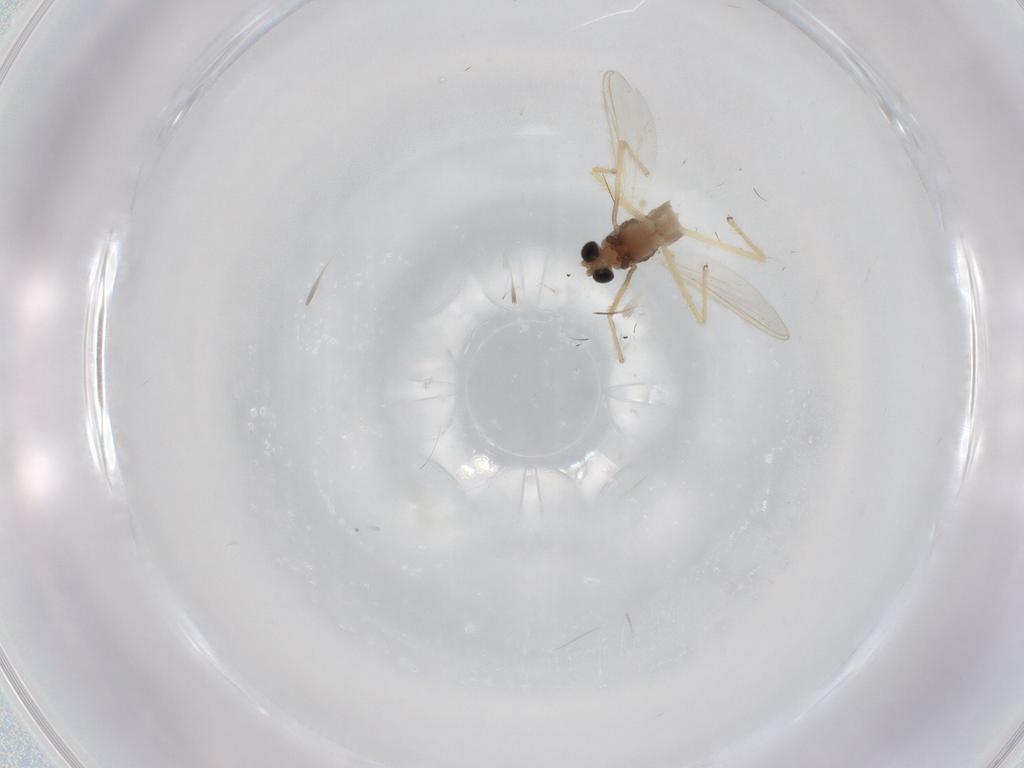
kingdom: Animalia
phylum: Arthropoda
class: Insecta
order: Diptera
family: Chironomidae
